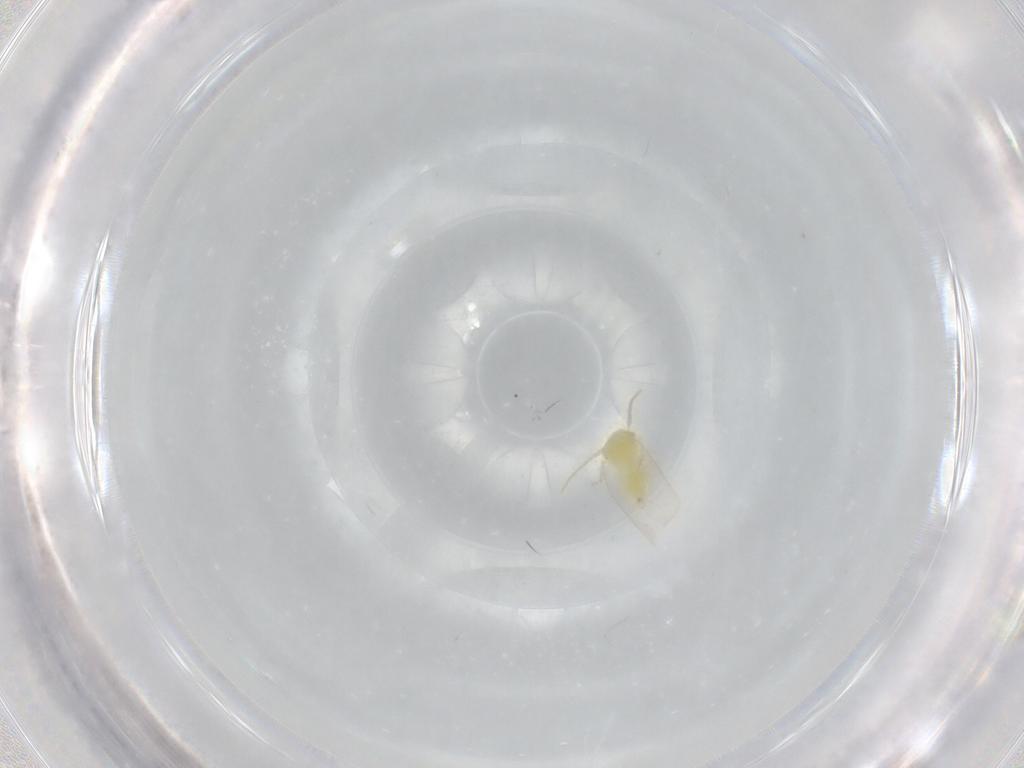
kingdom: Animalia
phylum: Arthropoda
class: Insecta
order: Hemiptera
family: Aleyrodidae
